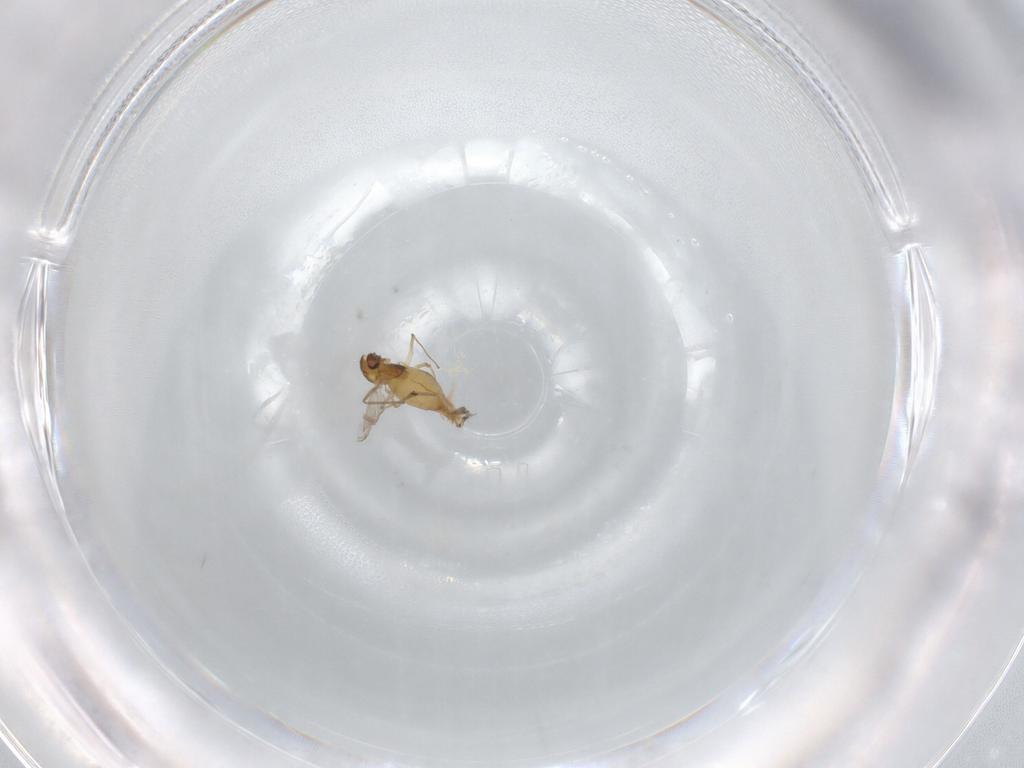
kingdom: Animalia
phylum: Arthropoda
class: Insecta
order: Diptera
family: Chironomidae
